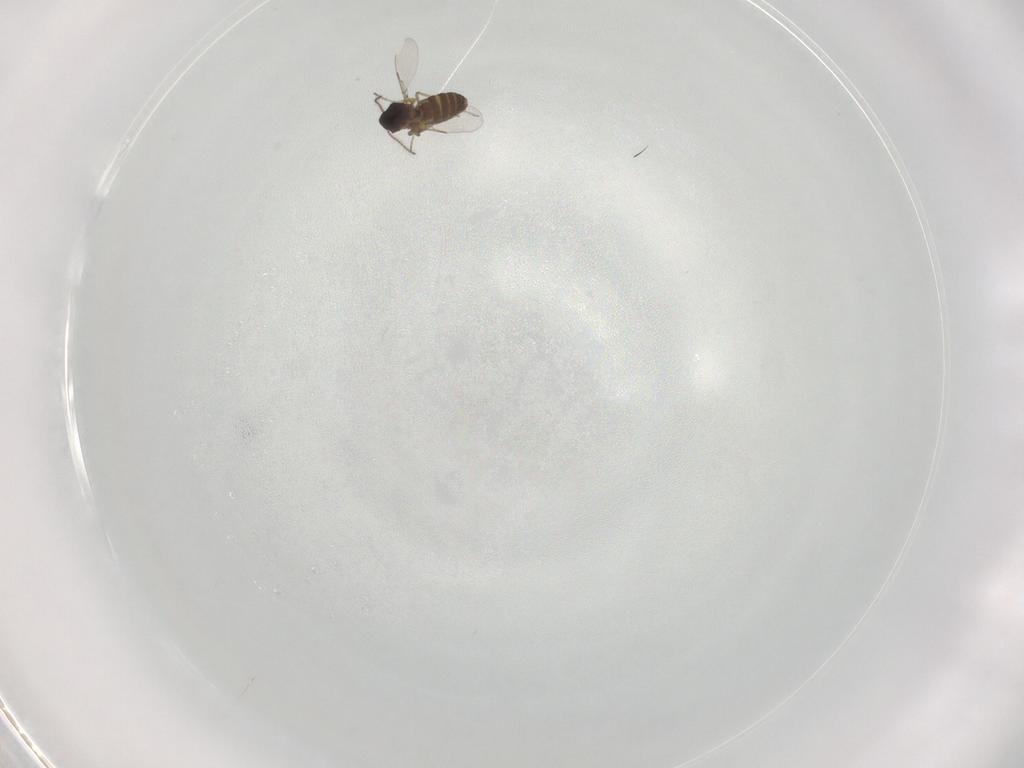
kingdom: Animalia
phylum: Arthropoda
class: Insecta
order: Diptera
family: Ceratopogonidae
